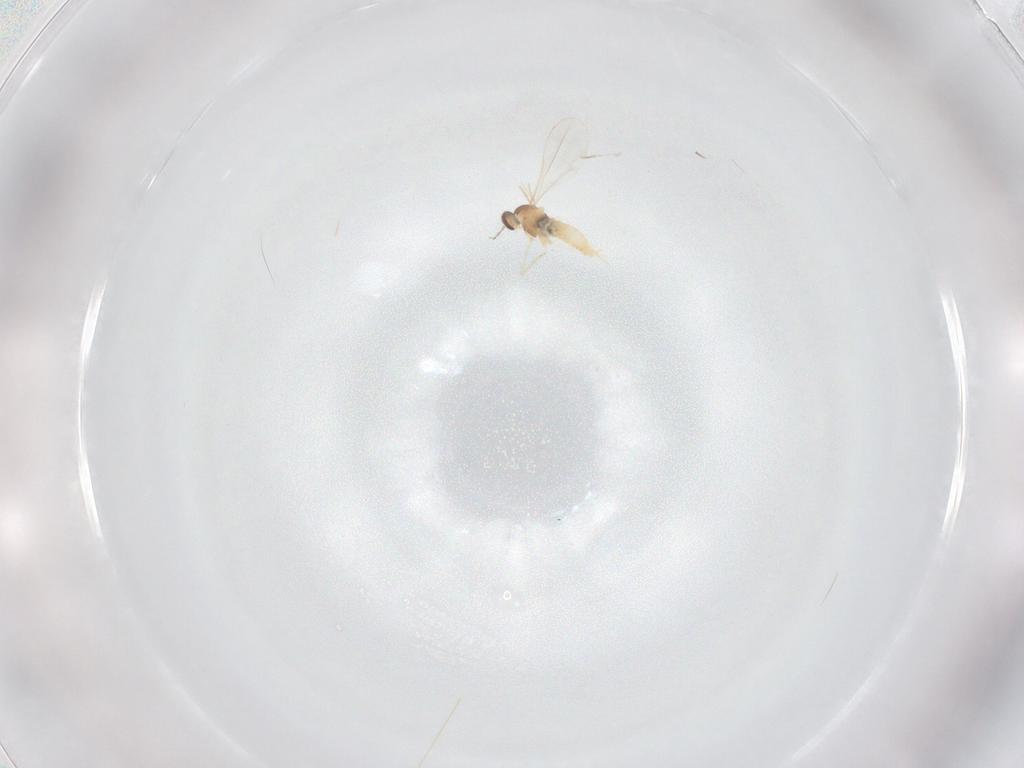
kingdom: Animalia
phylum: Arthropoda
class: Insecta
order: Diptera
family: Cecidomyiidae
